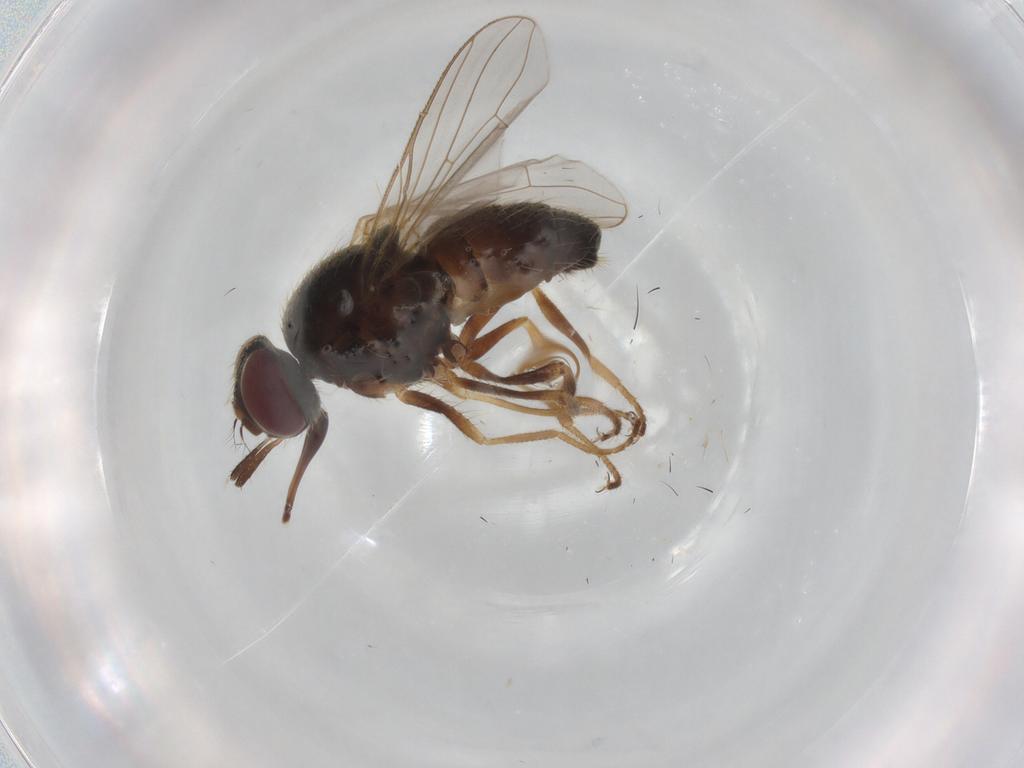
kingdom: Animalia
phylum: Arthropoda
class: Insecta
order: Diptera
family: Muscidae
